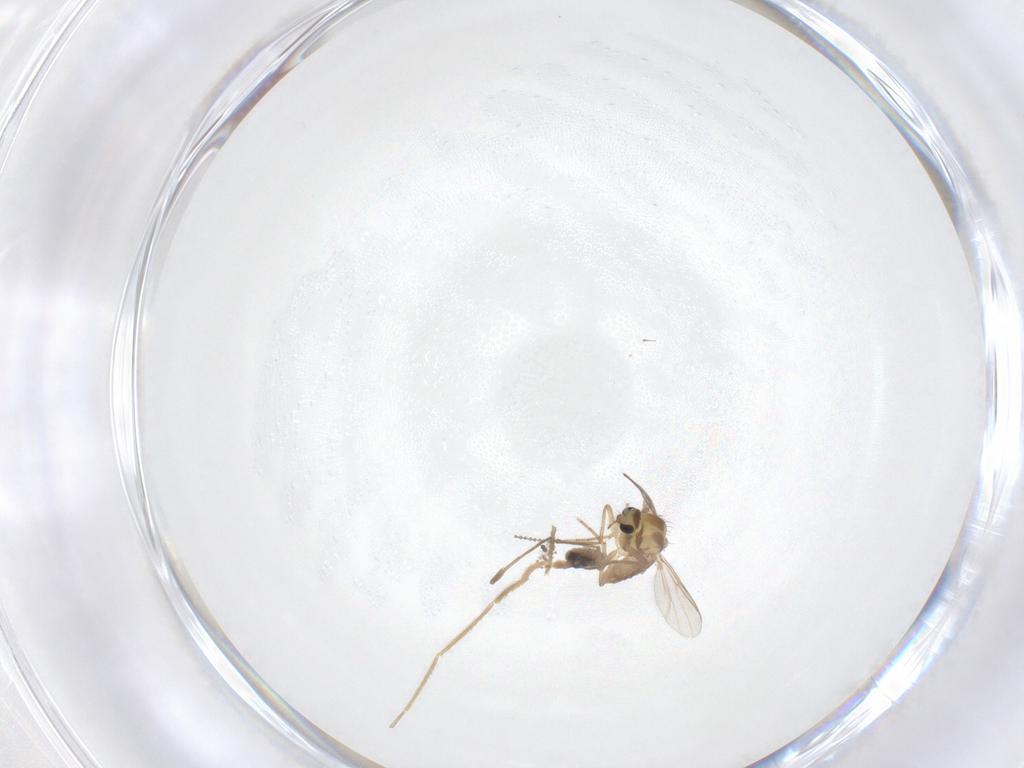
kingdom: Animalia
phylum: Arthropoda
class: Insecta
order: Diptera
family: Chironomidae
